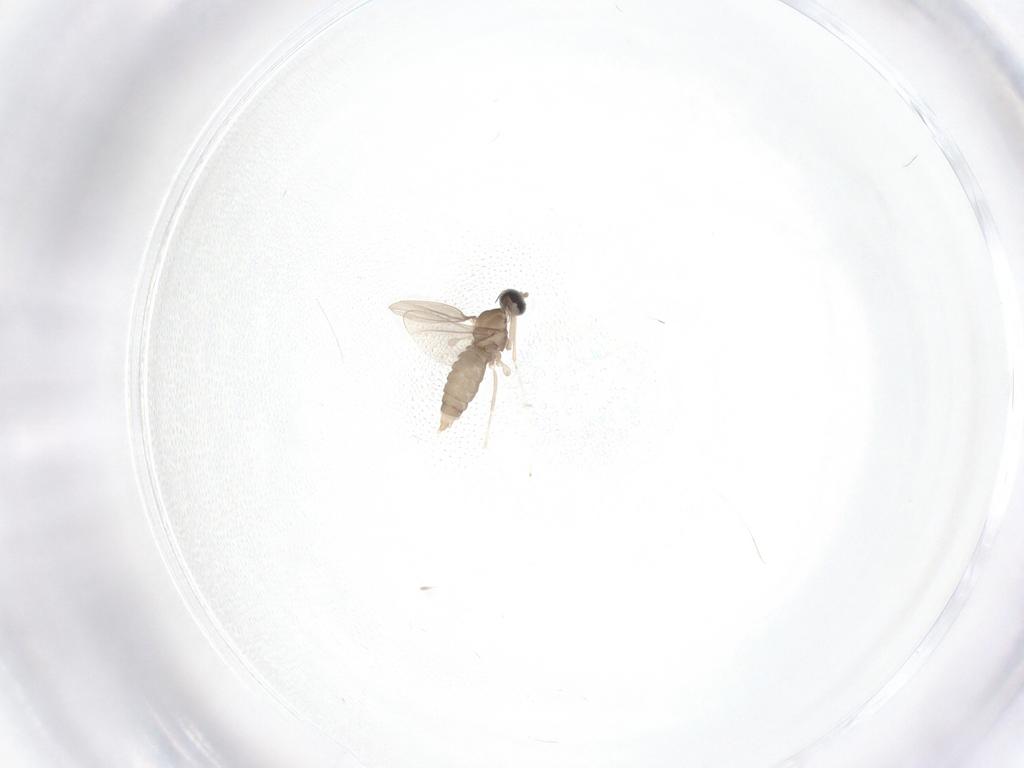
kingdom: Animalia
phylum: Arthropoda
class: Insecta
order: Diptera
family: Cecidomyiidae
